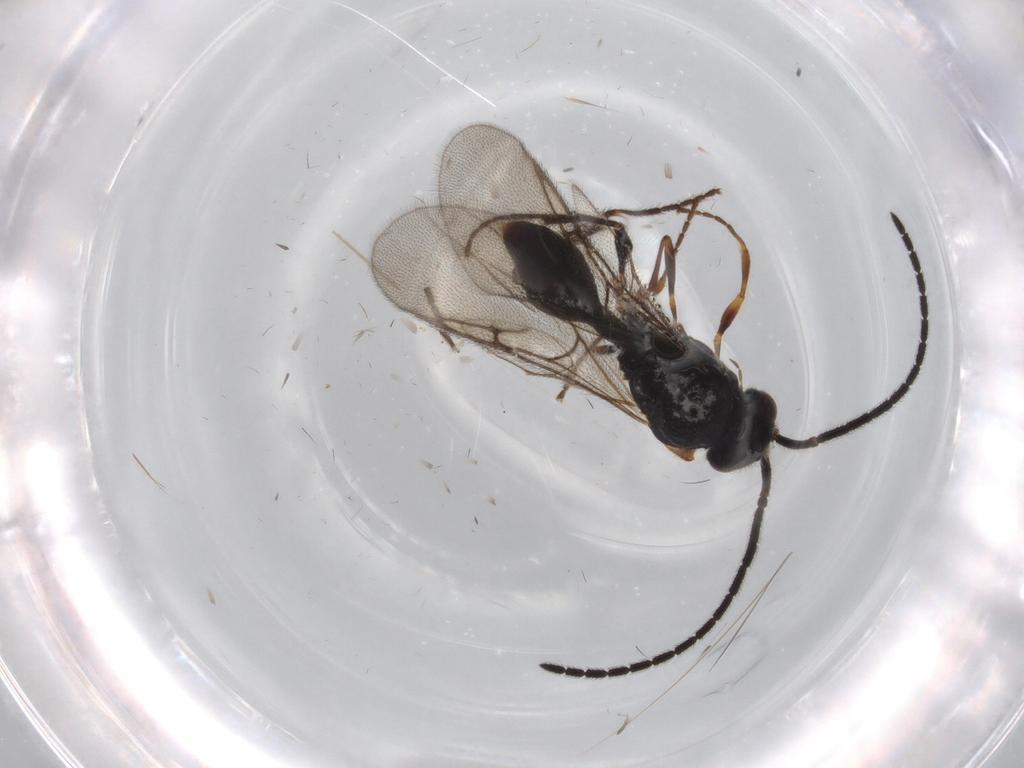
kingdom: Animalia
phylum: Arthropoda
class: Insecta
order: Hymenoptera
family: Diapriidae
